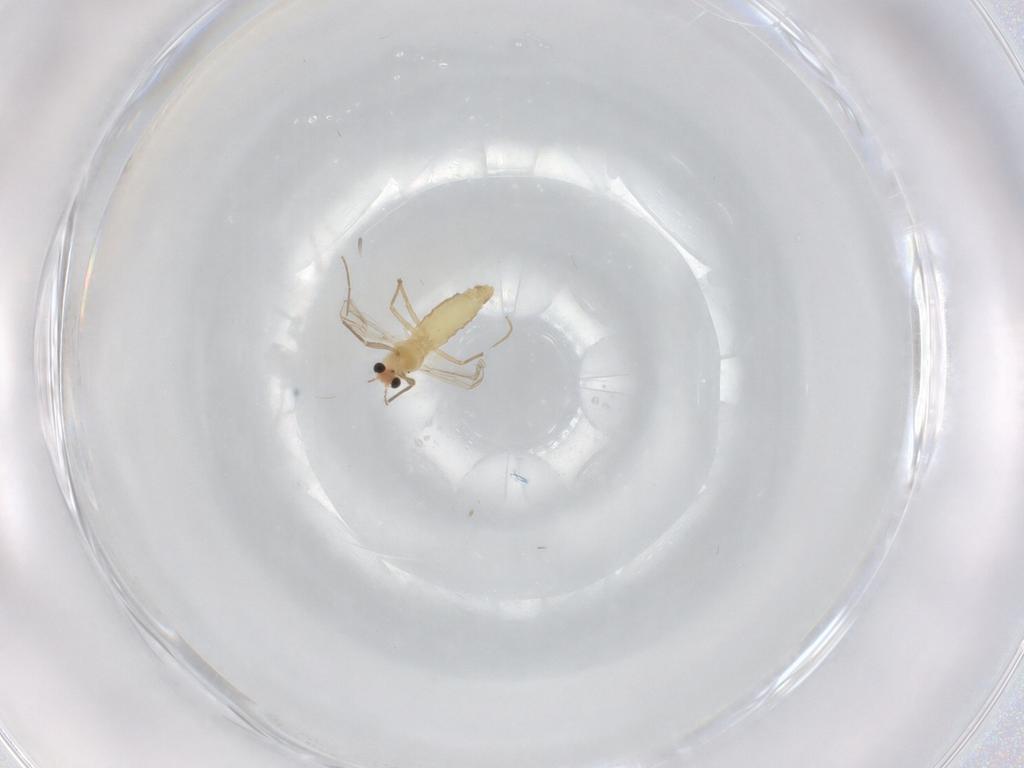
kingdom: Animalia
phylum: Arthropoda
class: Insecta
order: Diptera
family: Chironomidae
